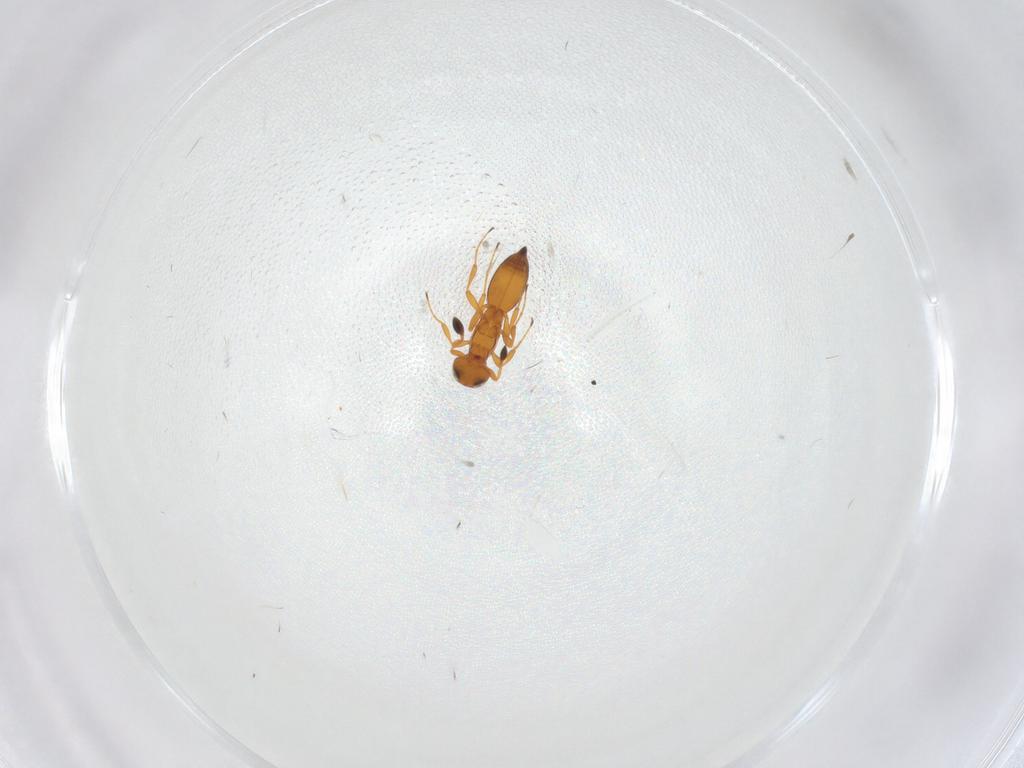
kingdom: Animalia
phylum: Arthropoda
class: Insecta
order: Hymenoptera
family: Platygastridae
